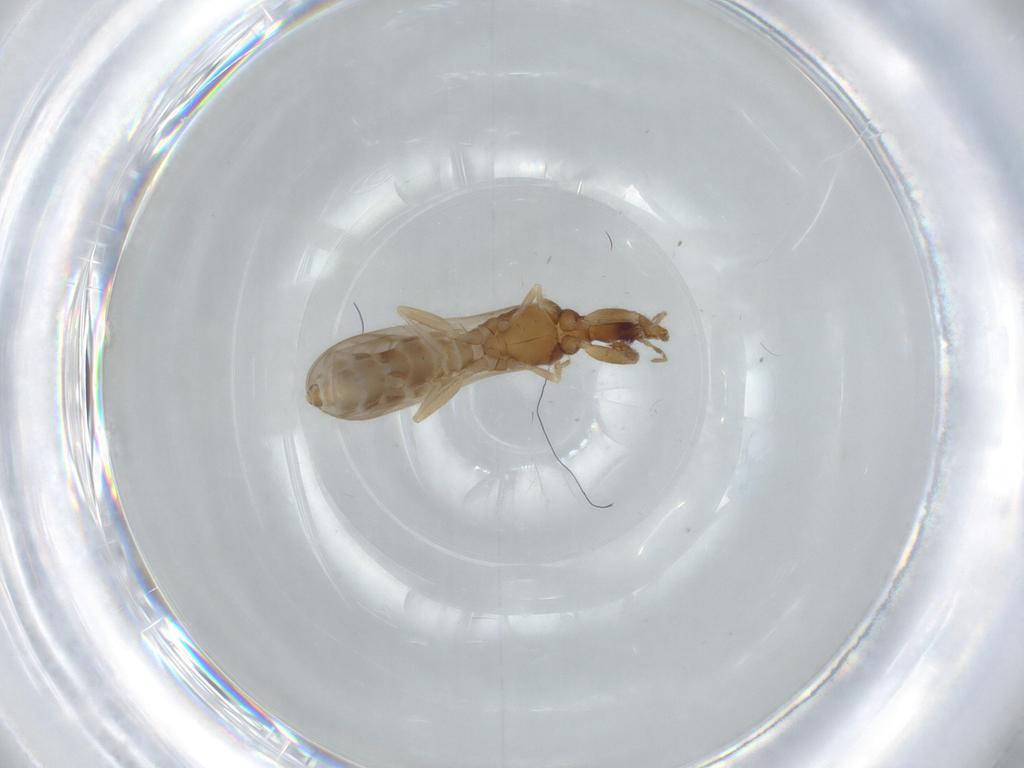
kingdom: Animalia
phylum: Arthropoda
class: Insecta
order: Hemiptera
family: Enicocephalidae
